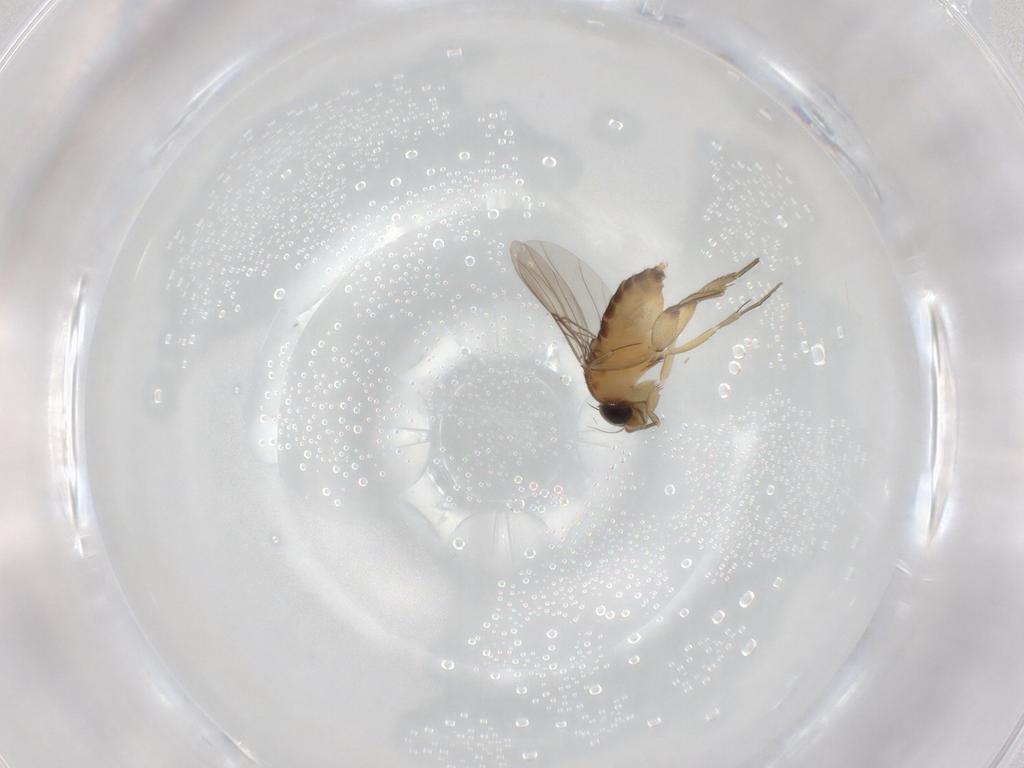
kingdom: Animalia
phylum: Arthropoda
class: Insecta
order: Diptera
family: Phoridae
